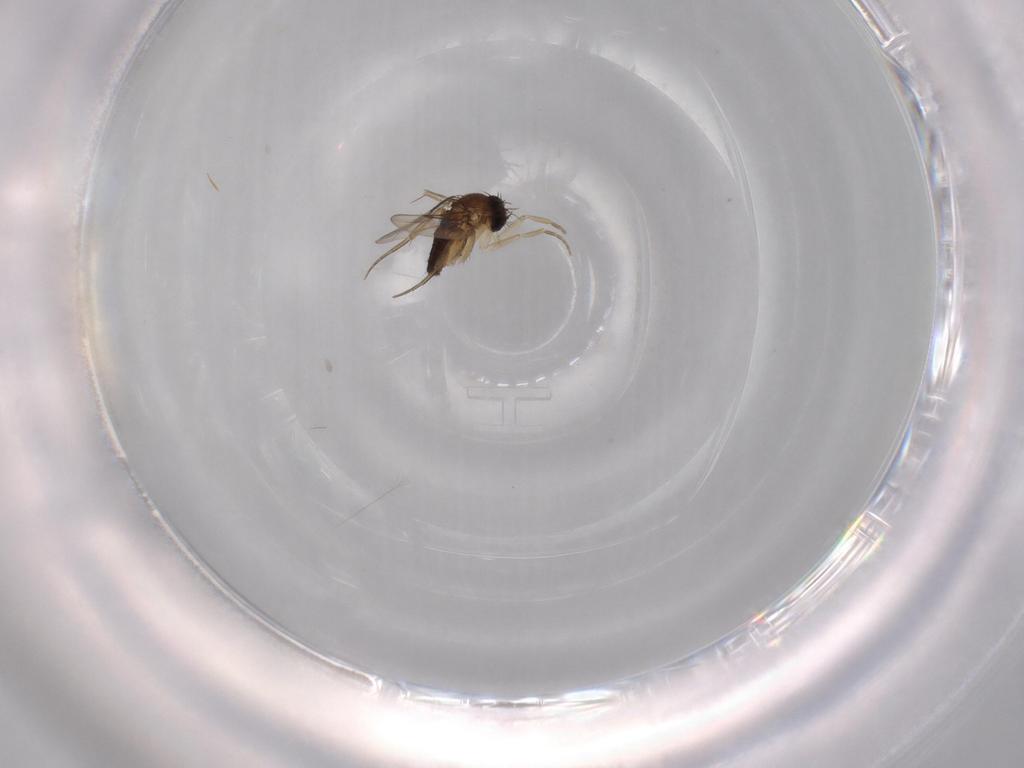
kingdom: Animalia
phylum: Arthropoda
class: Insecta
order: Diptera
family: Phoridae
